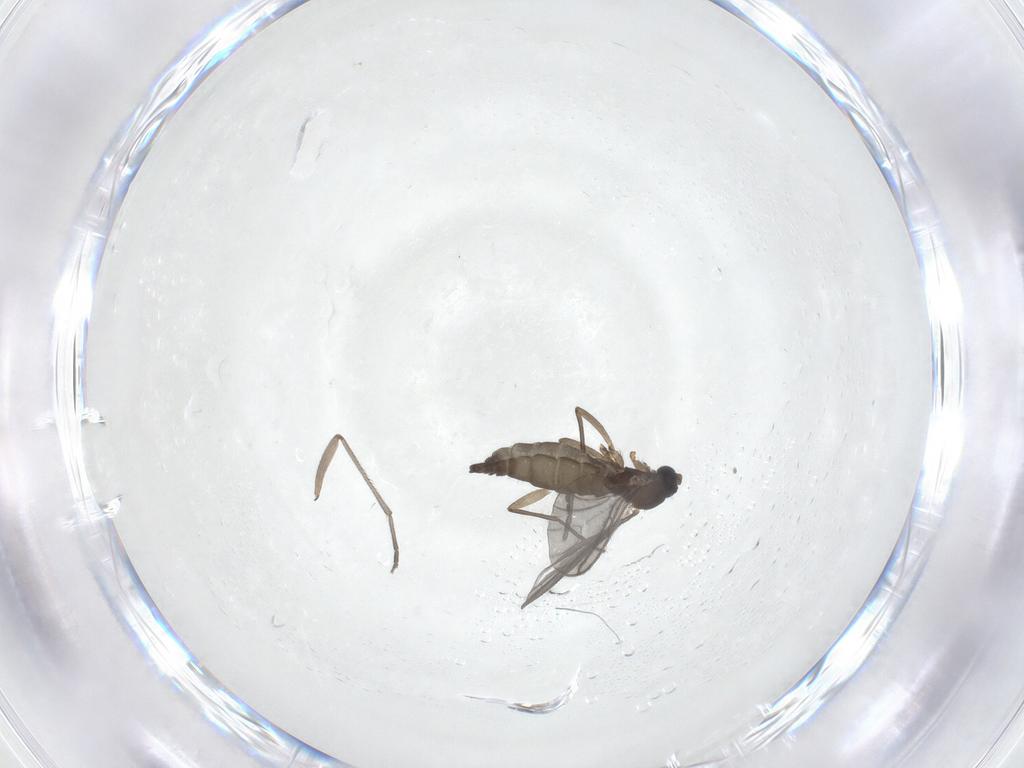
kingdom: Animalia
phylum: Arthropoda
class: Insecta
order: Diptera
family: Sciaridae
